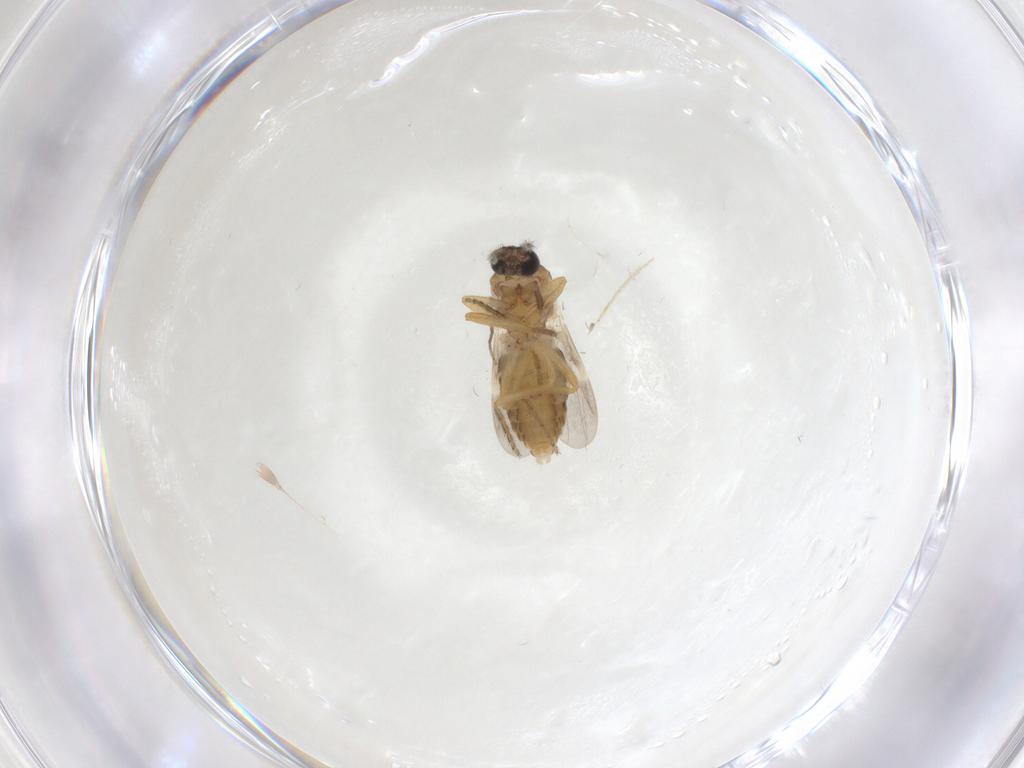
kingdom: Animalia
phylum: Arthropoda
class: Insecta
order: Diptera
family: Ceratopogonidae
